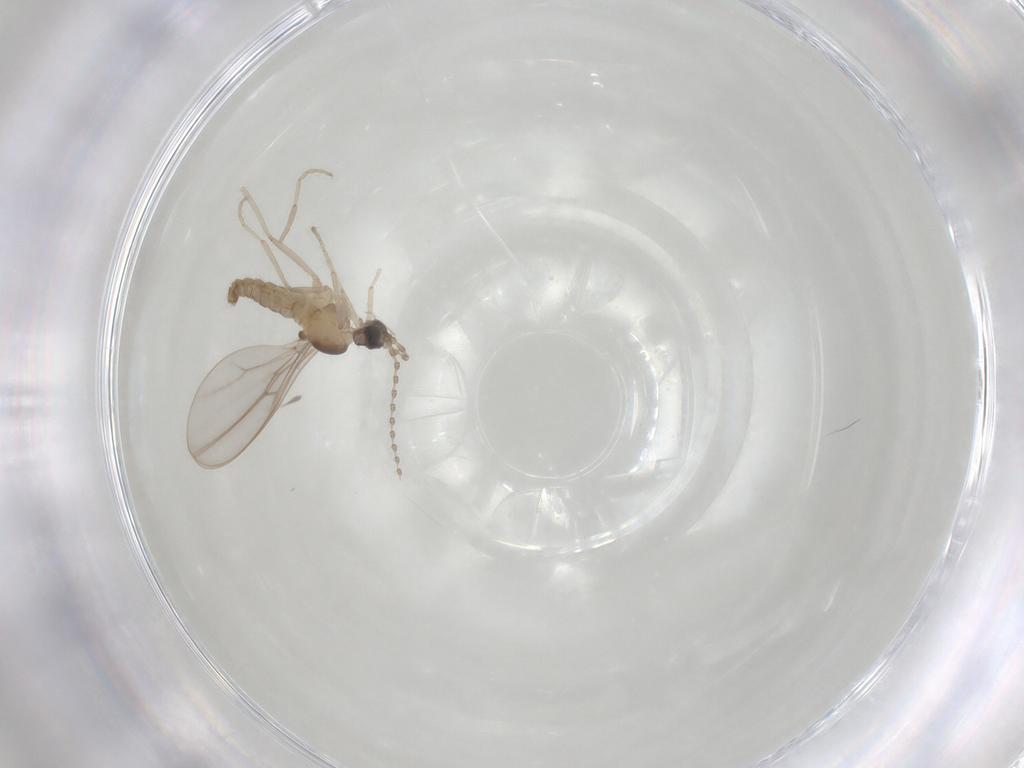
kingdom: Animalia
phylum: Arthropoda
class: Insecta
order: Diptera
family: Cecidomyiidae
